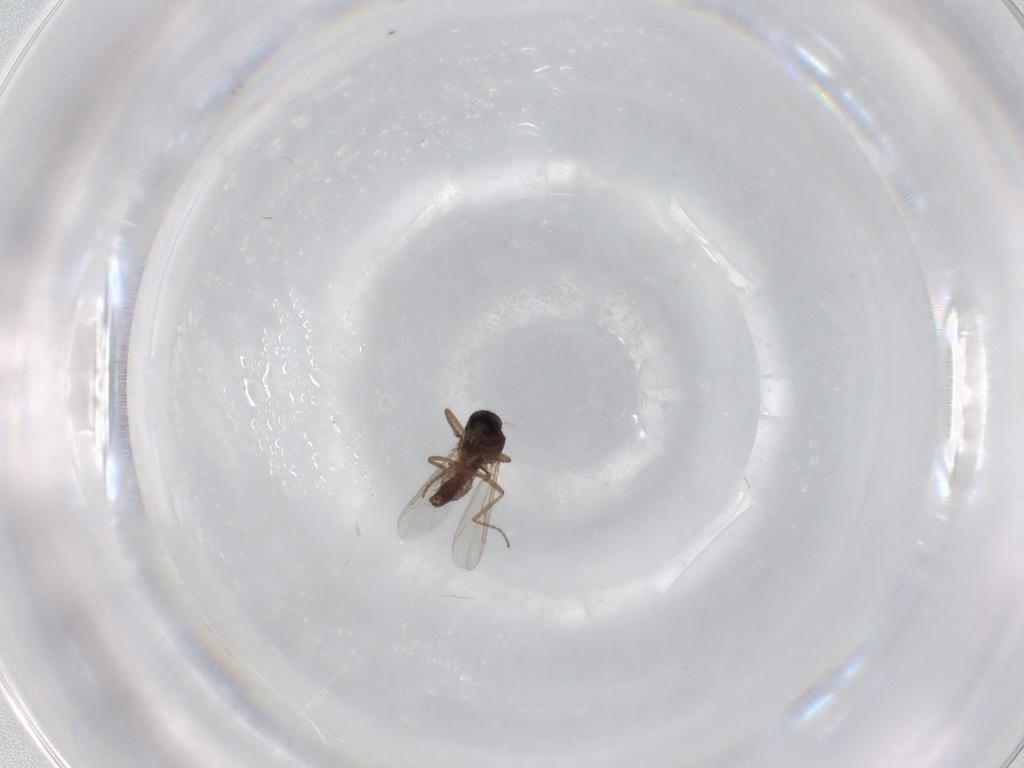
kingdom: Animalia
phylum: Arthropoda
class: Insecta
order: Diptera
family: Ceratopogonidae
